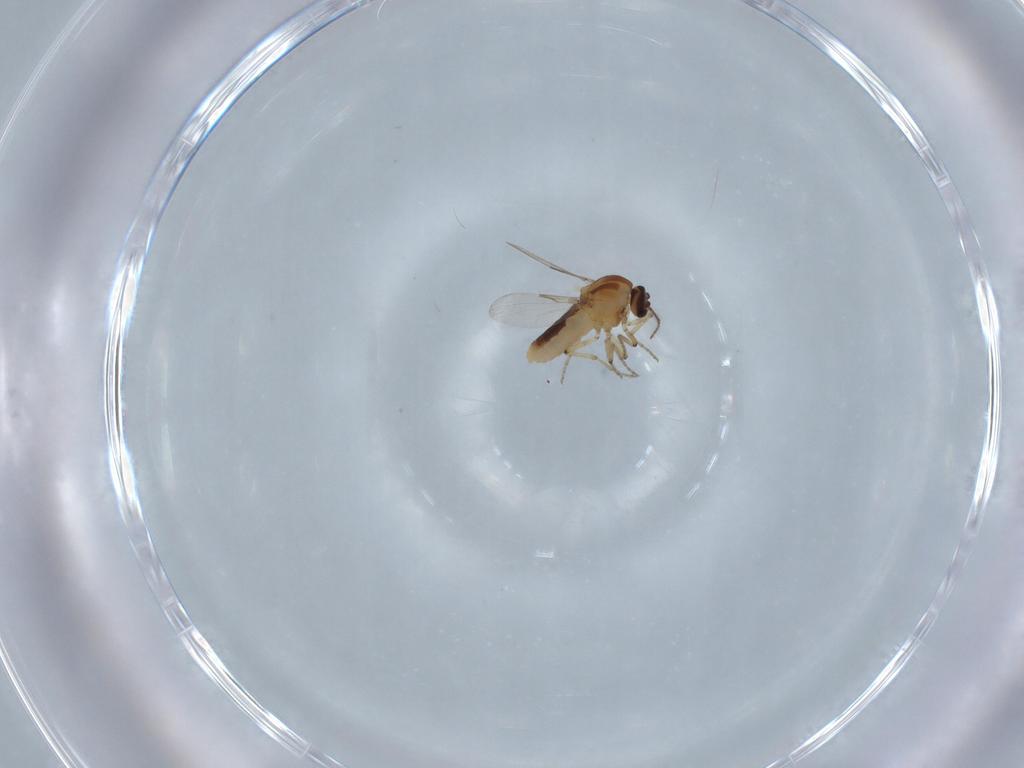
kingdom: Animalia
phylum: Arthropoda
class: Insecta
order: Diptera
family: Ceratopogonidae
